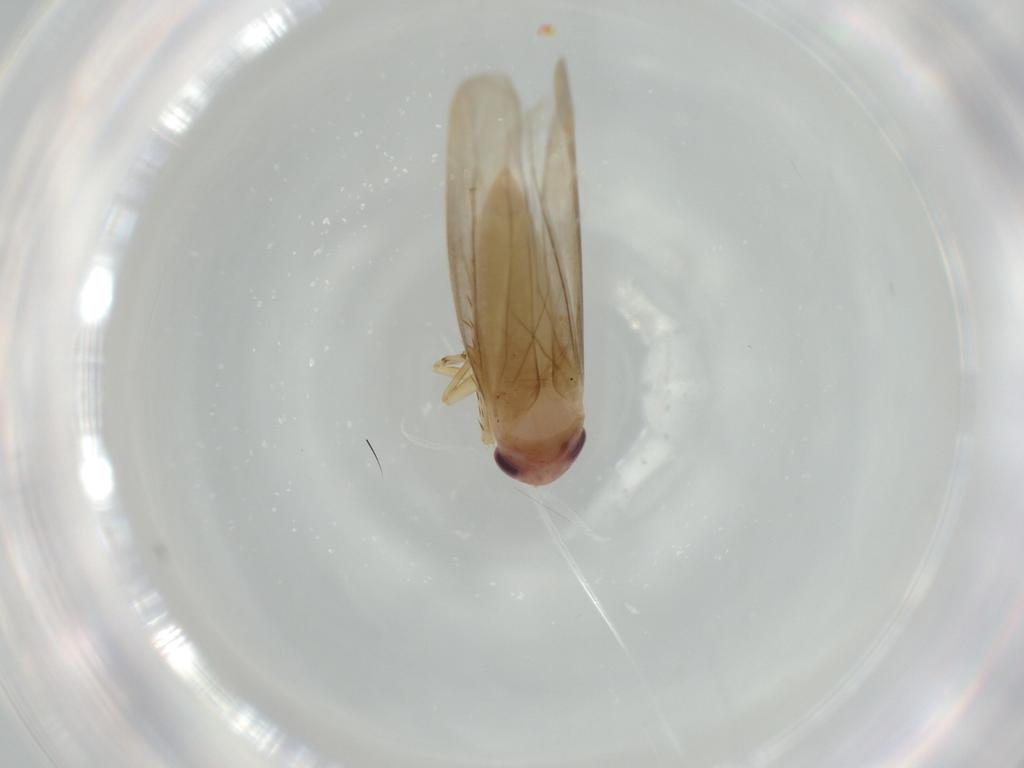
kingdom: Animalia
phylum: Arthropoda
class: Insecta
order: Hemiptera
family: Cicadellidae
